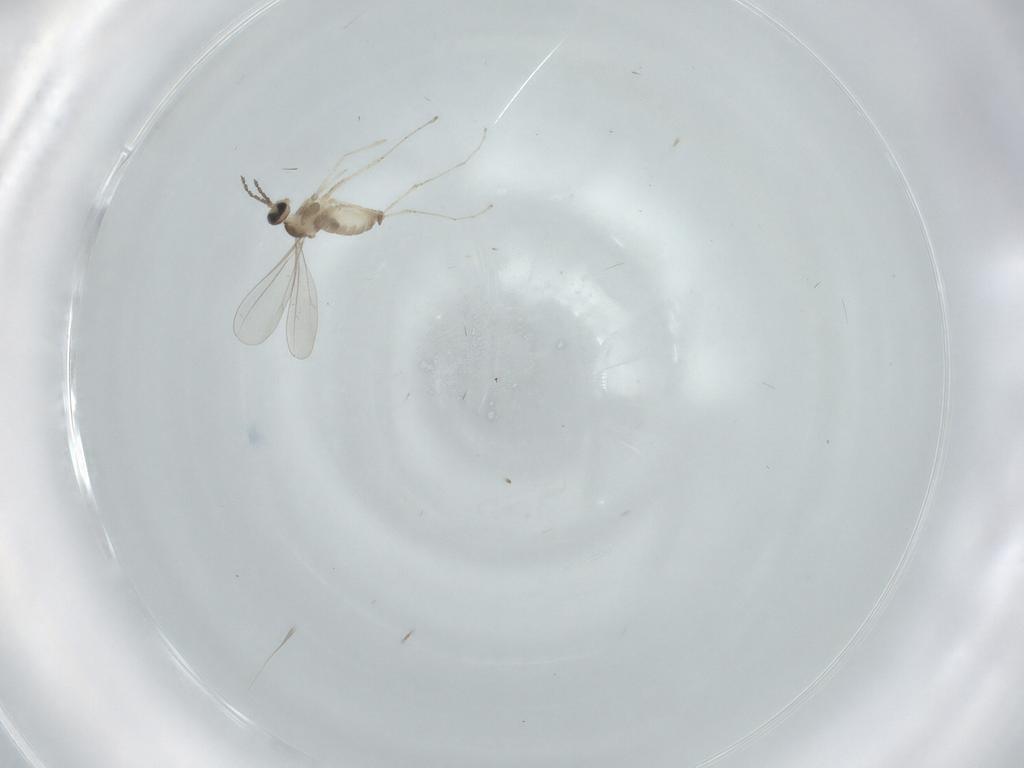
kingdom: Animalia
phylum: Arthropoda
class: Insecta
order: Diptera
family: Cecidomyiidae
